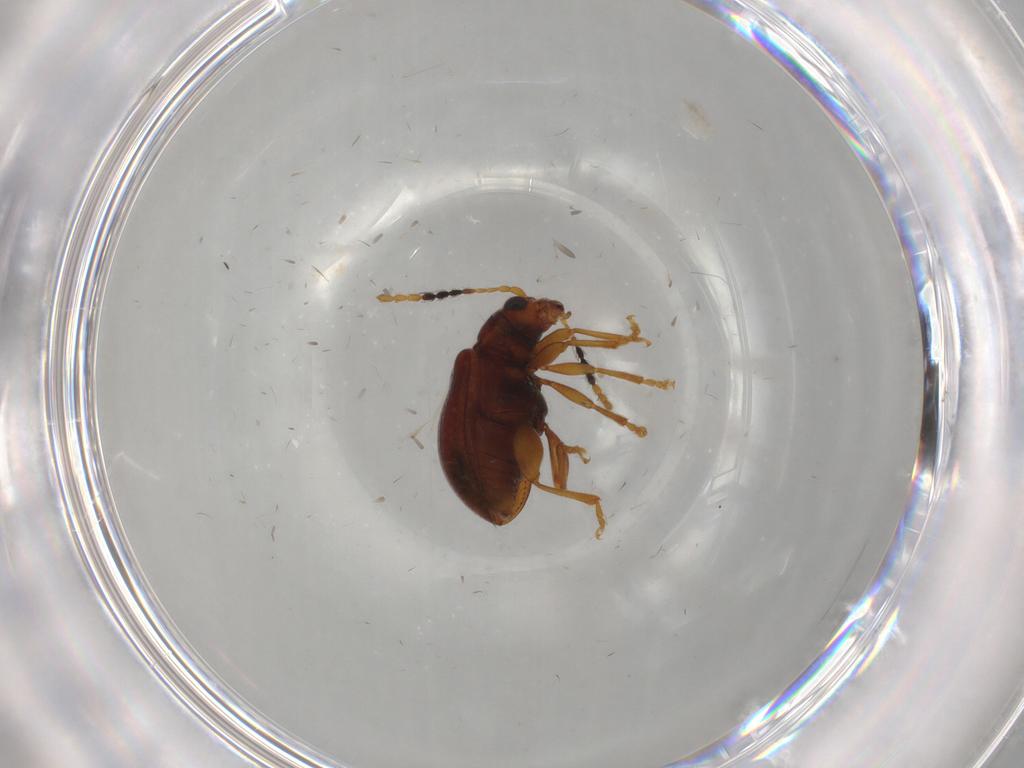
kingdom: Animalia
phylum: Arthropoda
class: Insecta
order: Coleoptera
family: Chrysomelidae
